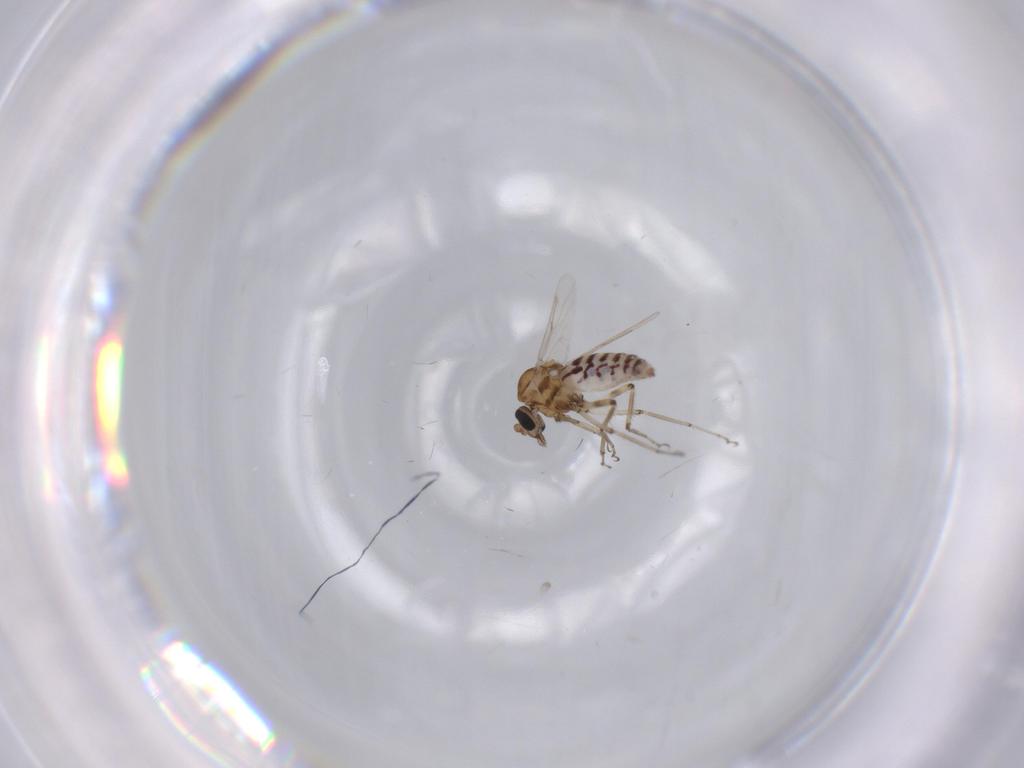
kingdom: Animalia
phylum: Arthropoda
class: Insecta
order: Diptera
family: Ceratopogonidae
